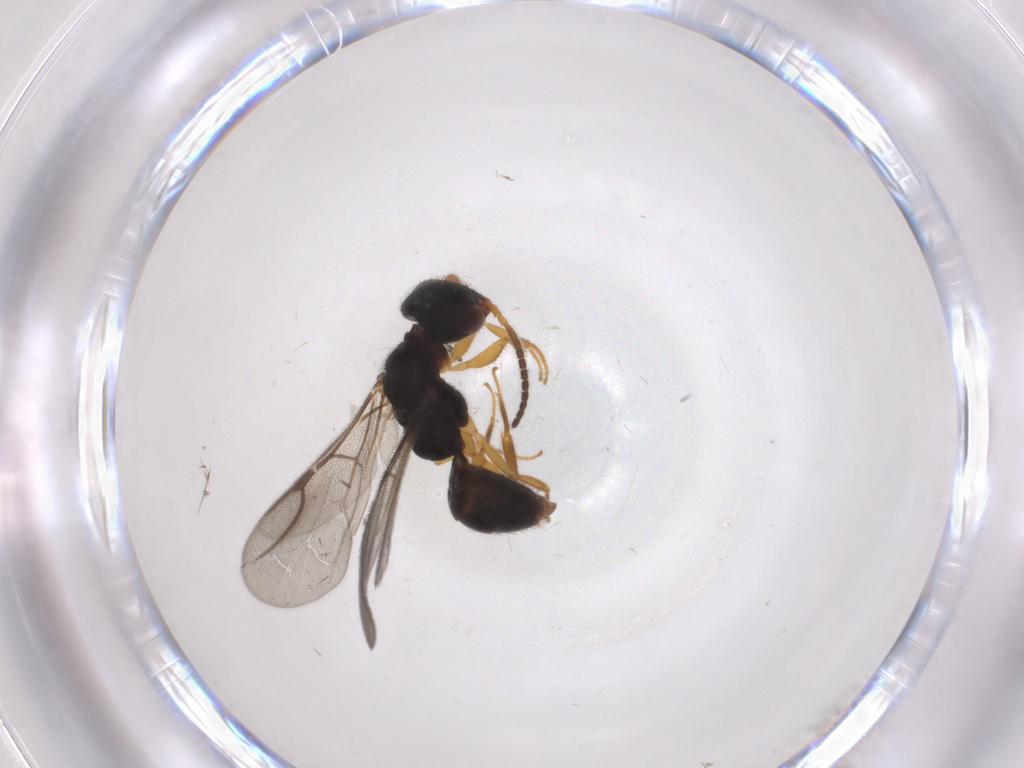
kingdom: Animalia
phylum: Arthropoda
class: Insecta
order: Hymenoptera
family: Bethylidae
